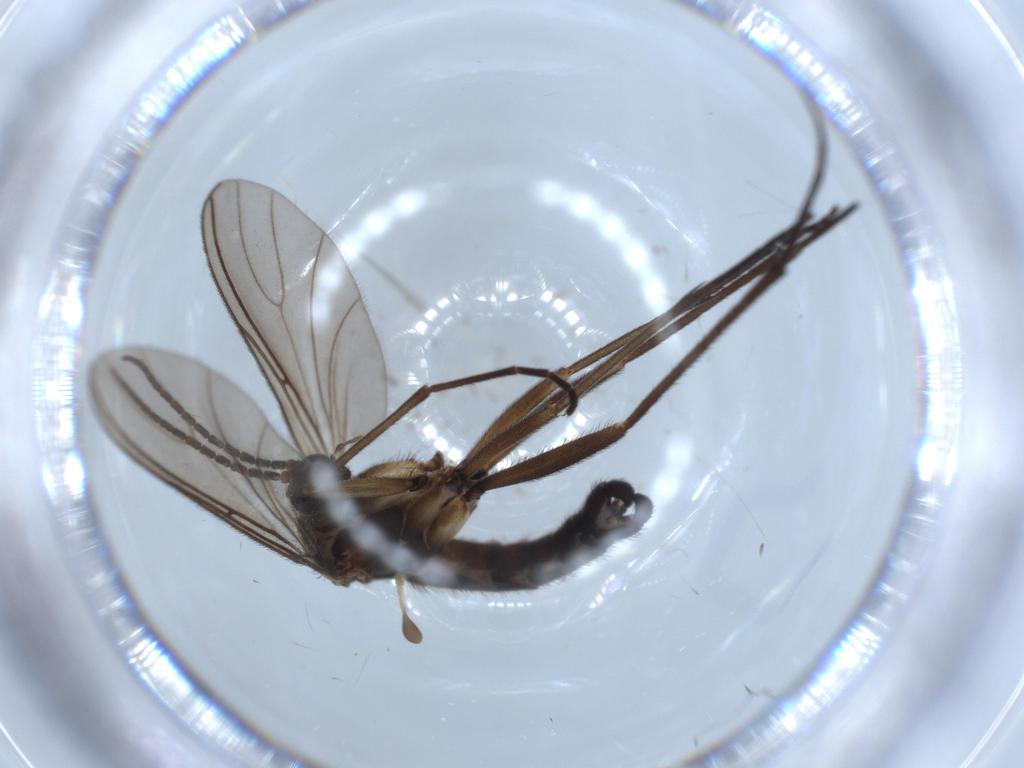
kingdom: Animalia
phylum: Arthropoda
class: Insecta
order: Diptera
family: Sciaridae
